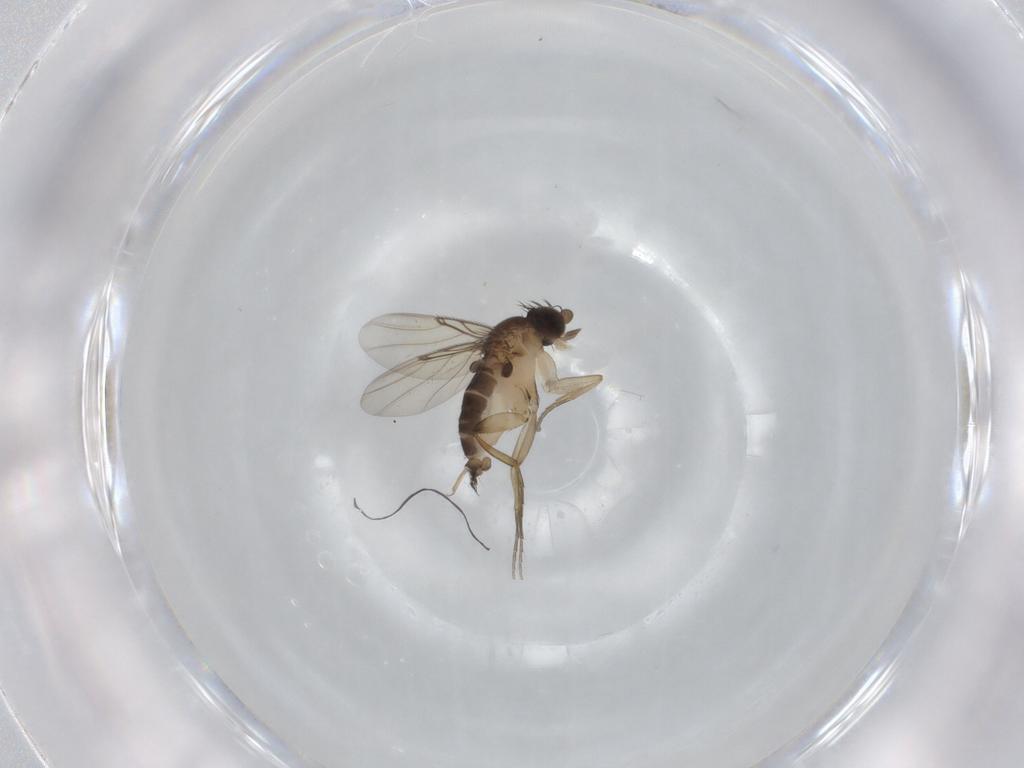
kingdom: Animalia
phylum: Arthropoda
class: Insecta
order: Diptera
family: Phoridae
